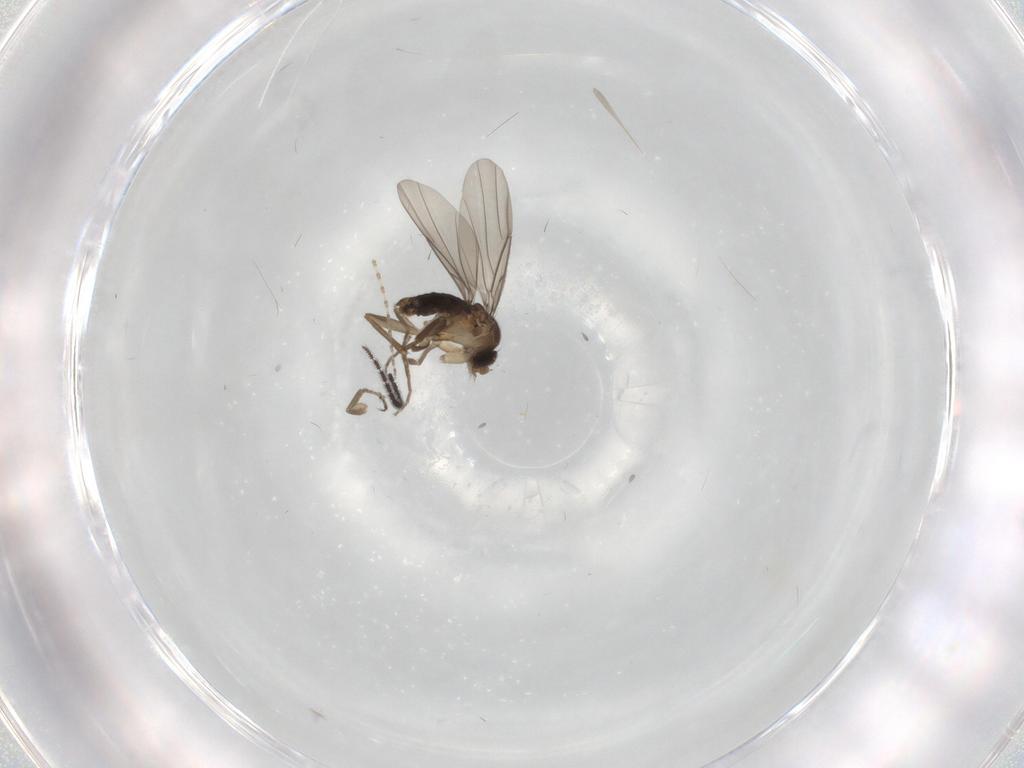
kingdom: Animalia
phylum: Arthropoda
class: Insecta
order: Diptera
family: Phoridae
